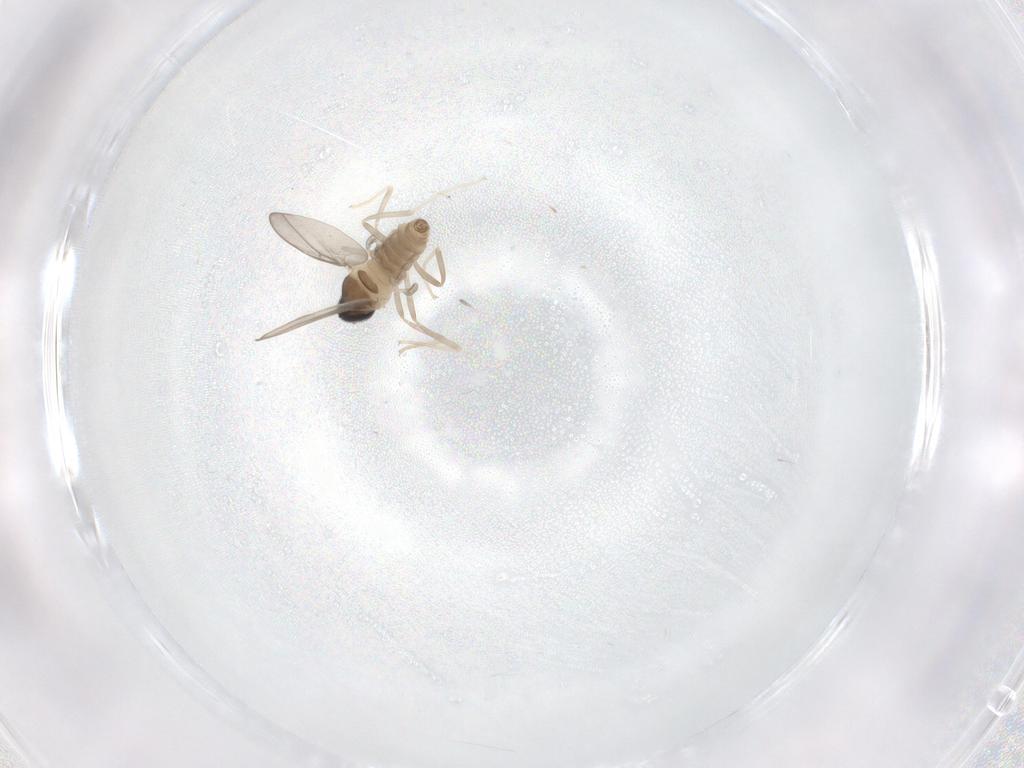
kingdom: Animalia
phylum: Arthropoda
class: Insecta
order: Diptera
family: Cecidomyiidae
